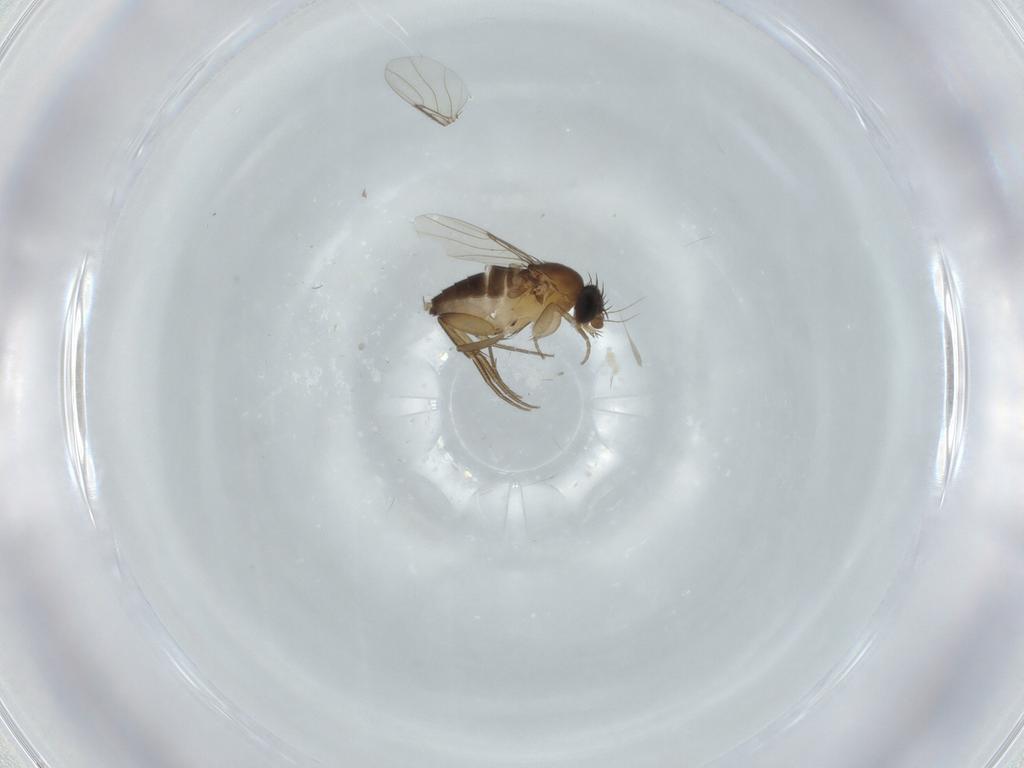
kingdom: Animalia
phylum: Arthropoda
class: Insecta
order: Diptera
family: Phoridae
